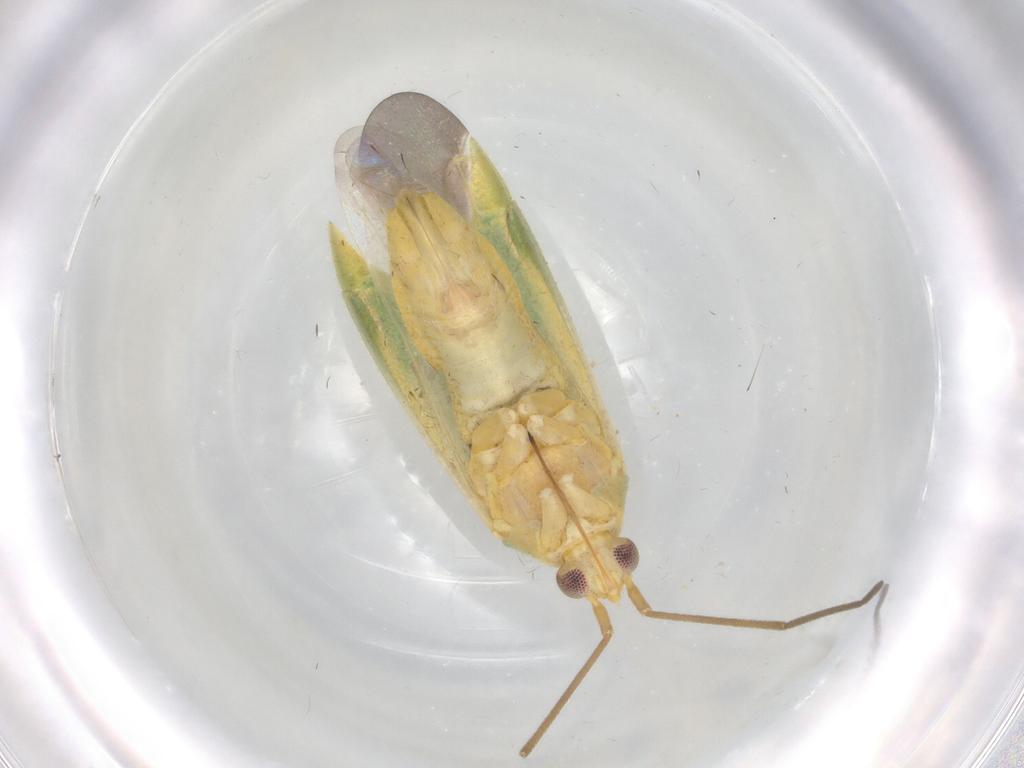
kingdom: Animalia
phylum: Arthropoda
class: Insecta
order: Hemiptera
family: Miridae
